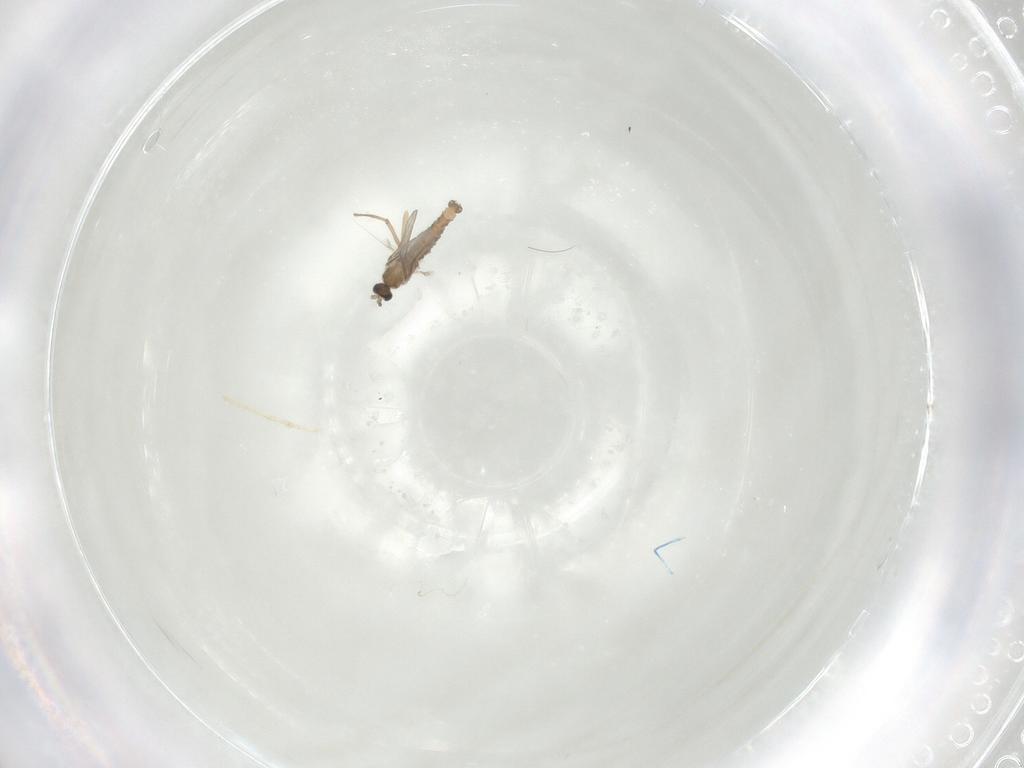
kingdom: Animalia
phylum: Arthropoda
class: Insecta
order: Diptera
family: Cecidomyiidae
